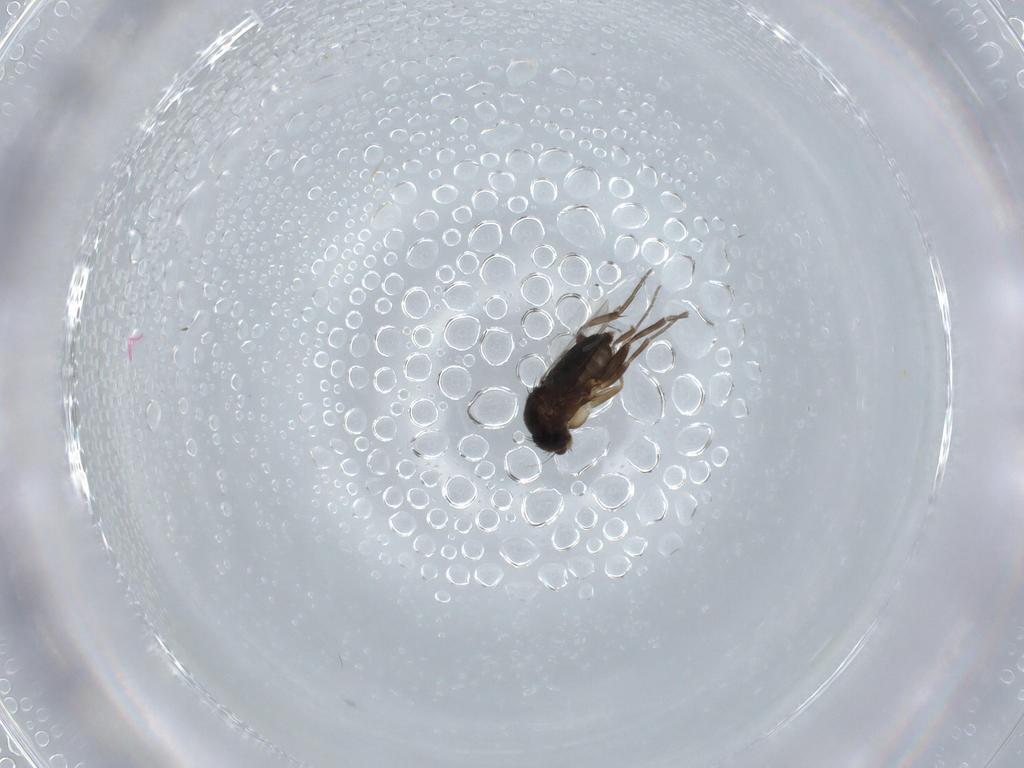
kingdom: Animalia
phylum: Arthropoda
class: Insecta
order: Diptera
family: Phoridae
